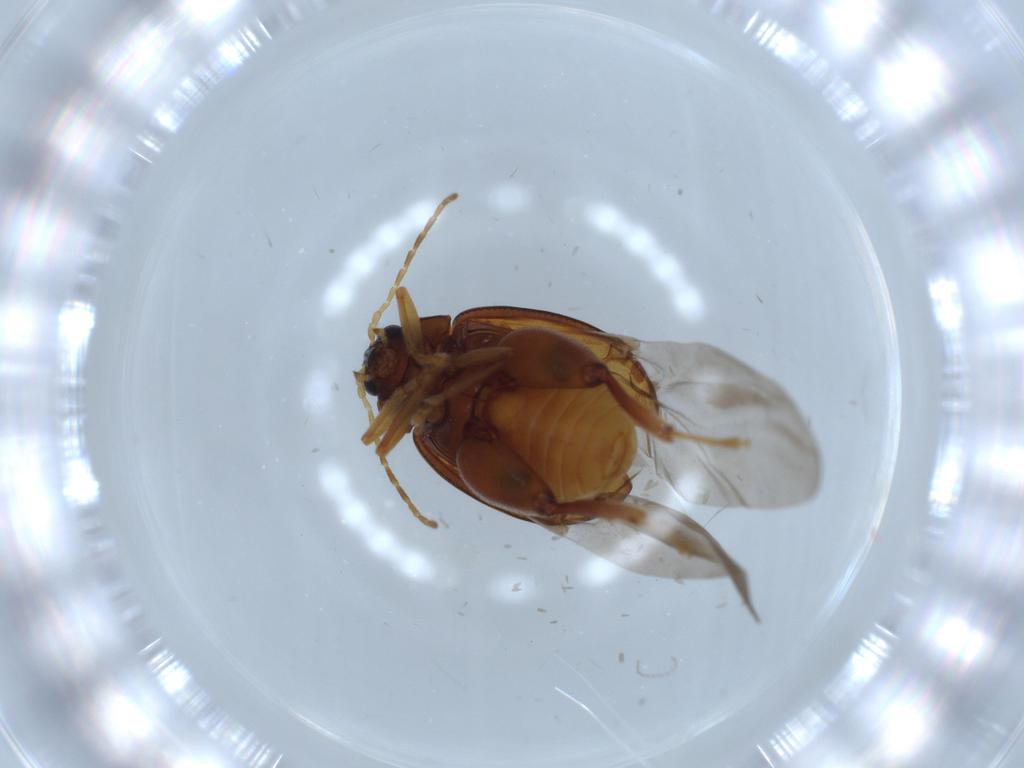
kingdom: Animalia
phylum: Arthropoda
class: Insecta
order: Coleoptera
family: Chrysomelidae
